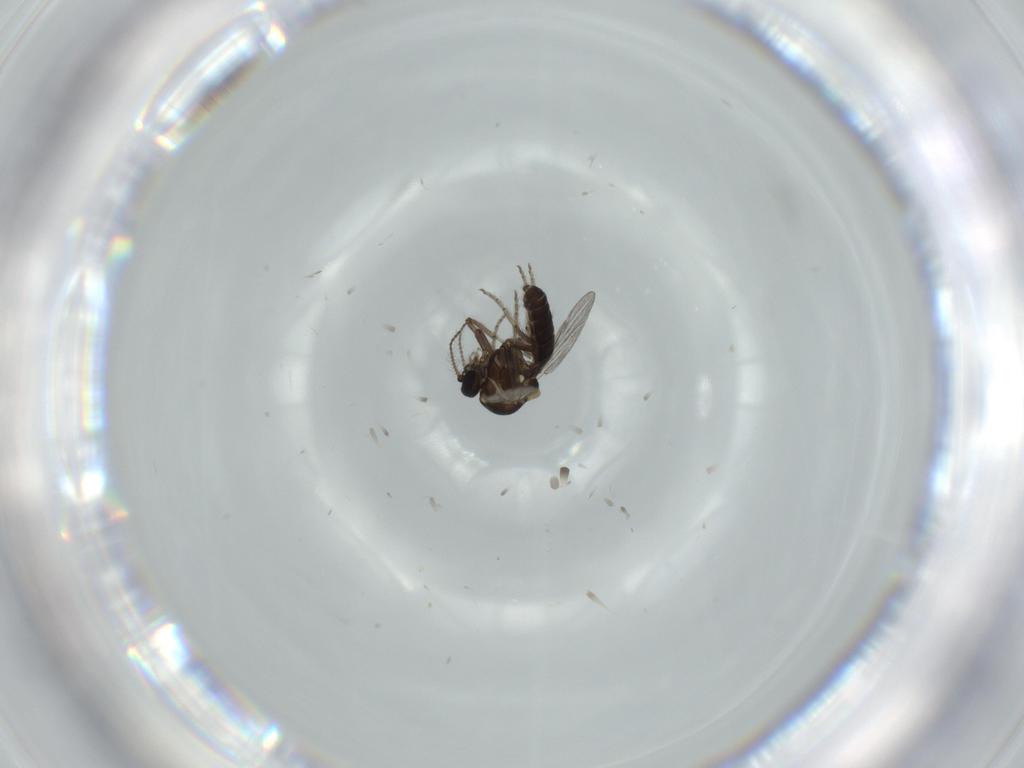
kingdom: Animalia
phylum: Arthropoda
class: Insecta
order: Diptera
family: Ceratopogonidae
